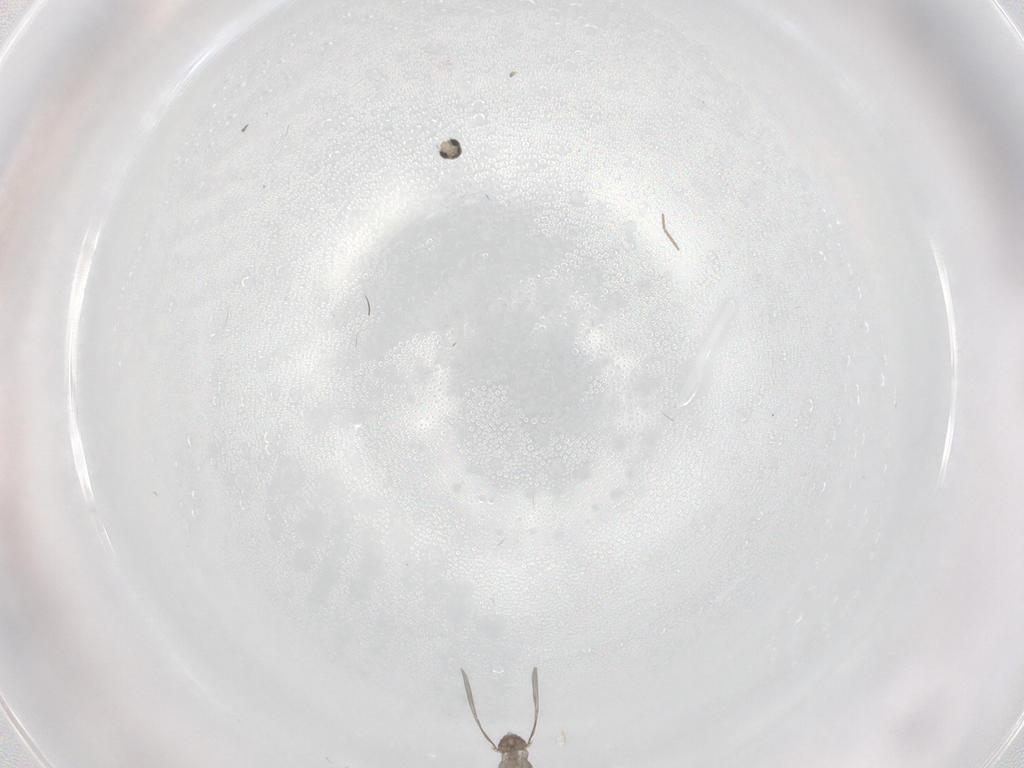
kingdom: Animalia
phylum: Arthropoda
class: Insecta
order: Diptera
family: Cecidomyiidae
